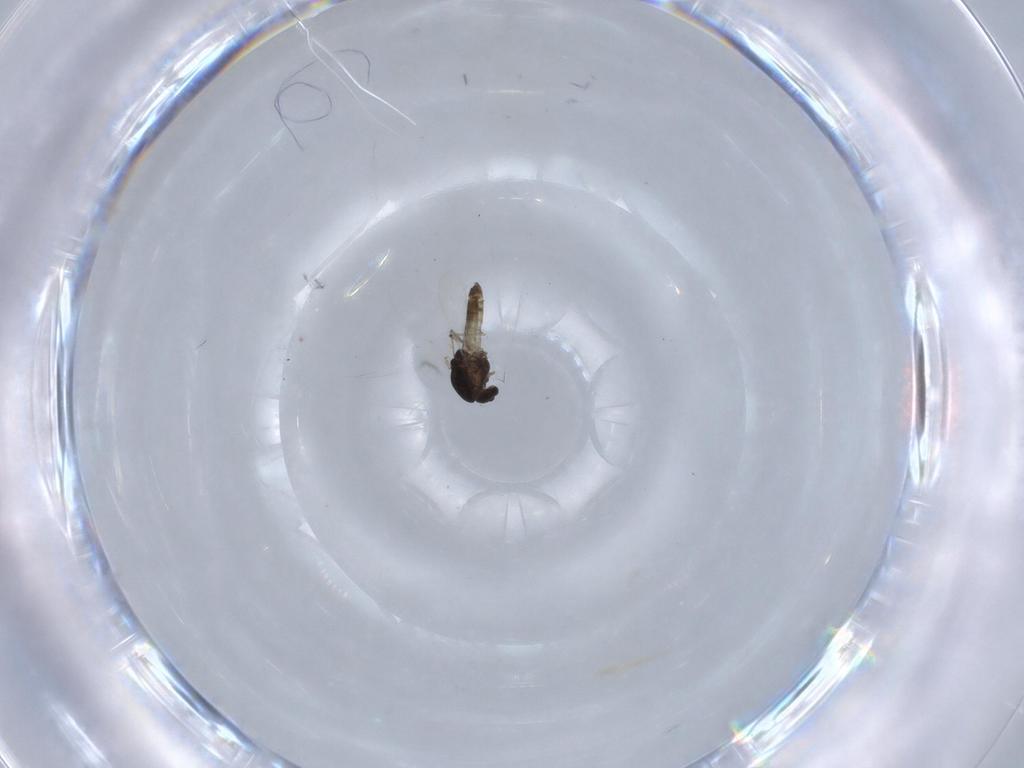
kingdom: Animalia
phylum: Arthropoda
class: Insecta
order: Diptera
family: Chironomidae
